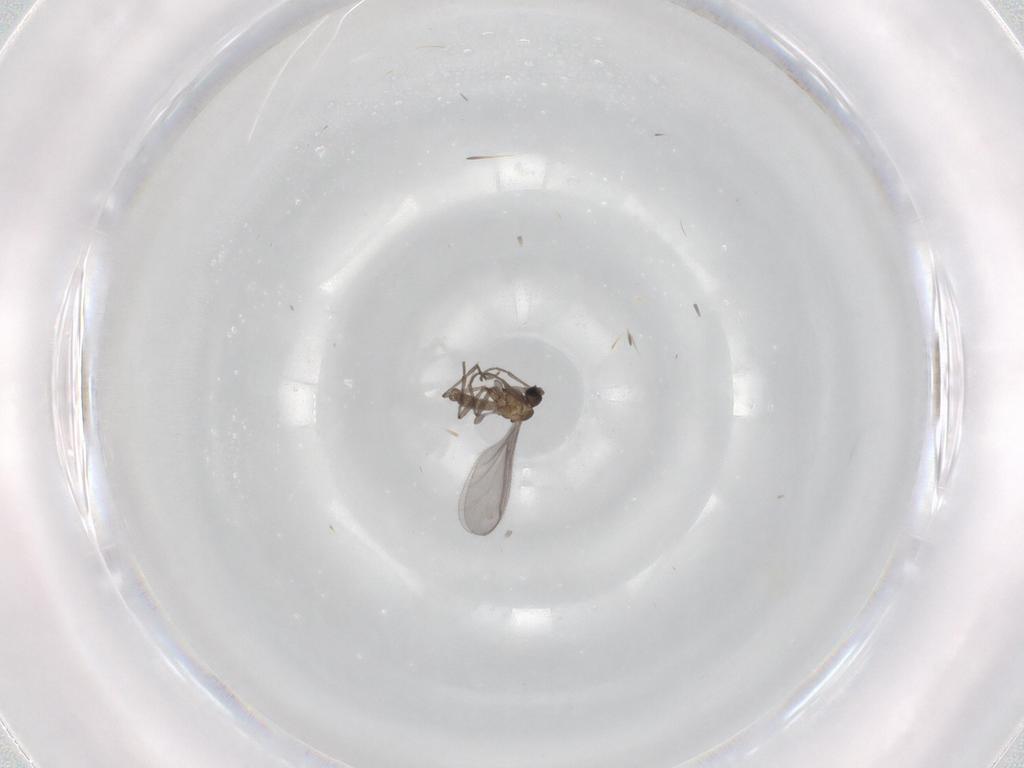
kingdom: Animalia
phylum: Arthropoda
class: Insecta
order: Diptera
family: Sciaridae
